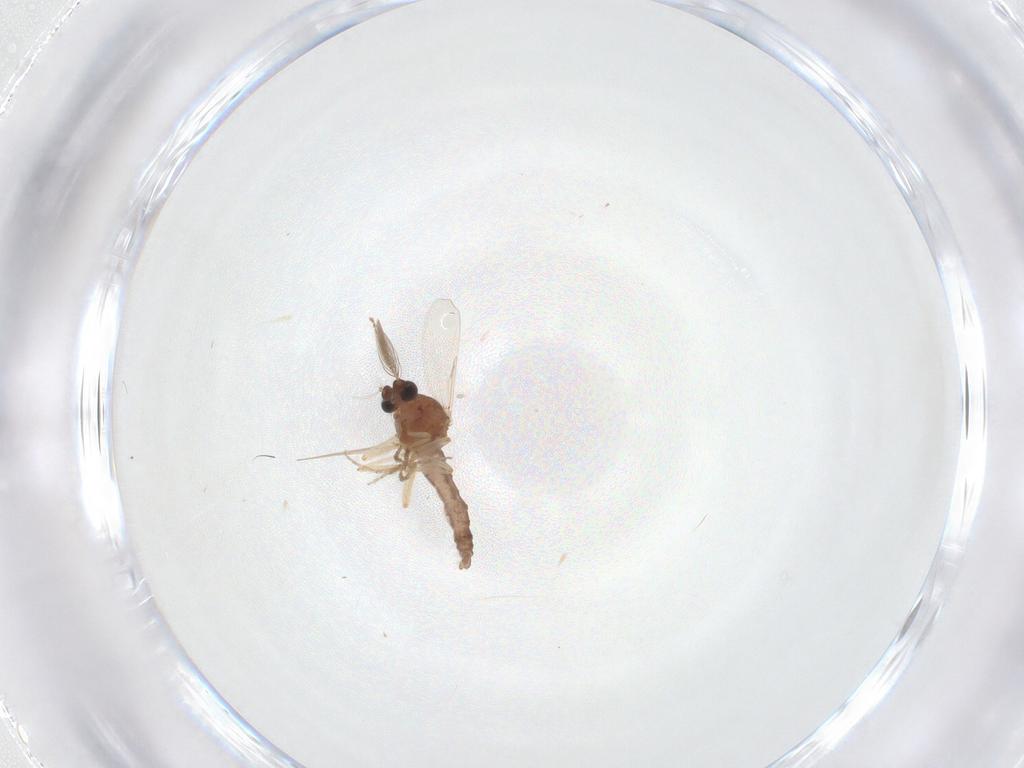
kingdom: Animalia
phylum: Arthropoda
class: Insecta
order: Diptera
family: Ceratopogonidae
